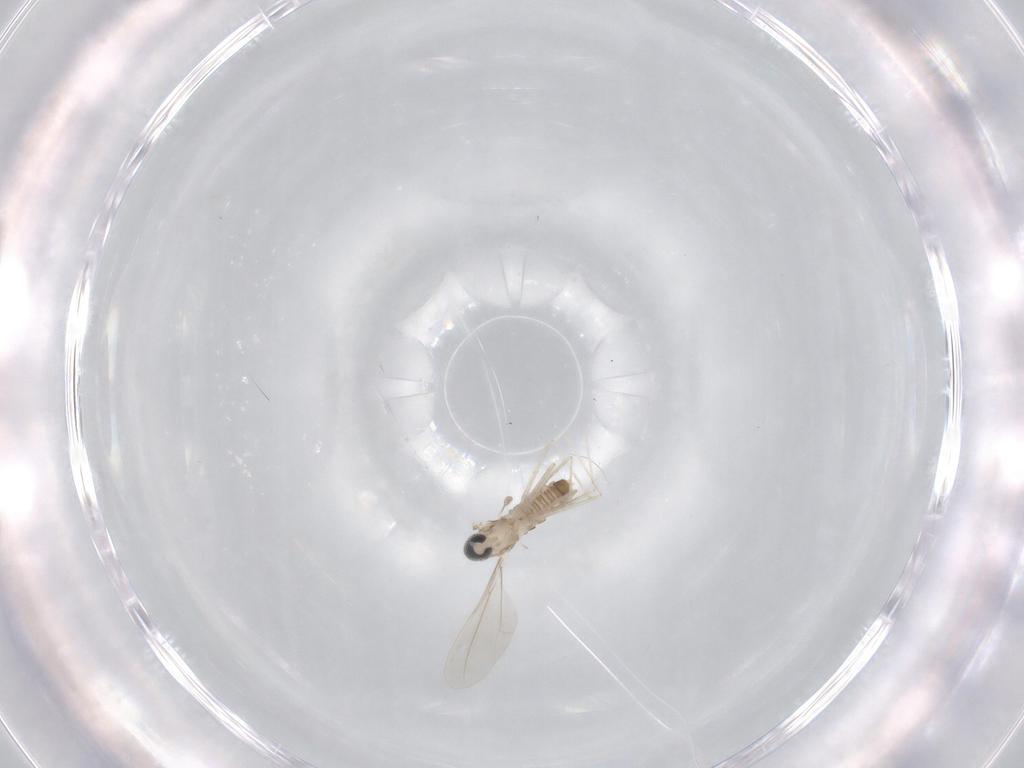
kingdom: Animalia
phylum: Arthropoda
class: Insecta
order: Diptera
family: Cecidomyiidae
